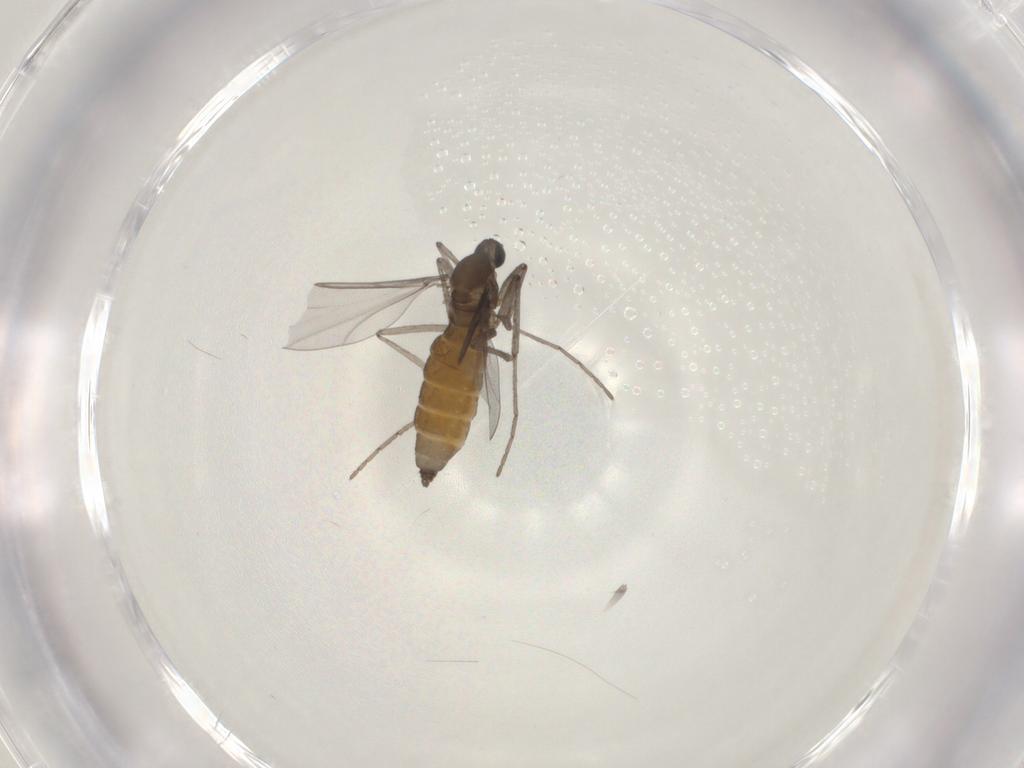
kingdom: Animalia
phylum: Arthropoda
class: Insecta
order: Diptera
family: Cecidomyiidae
